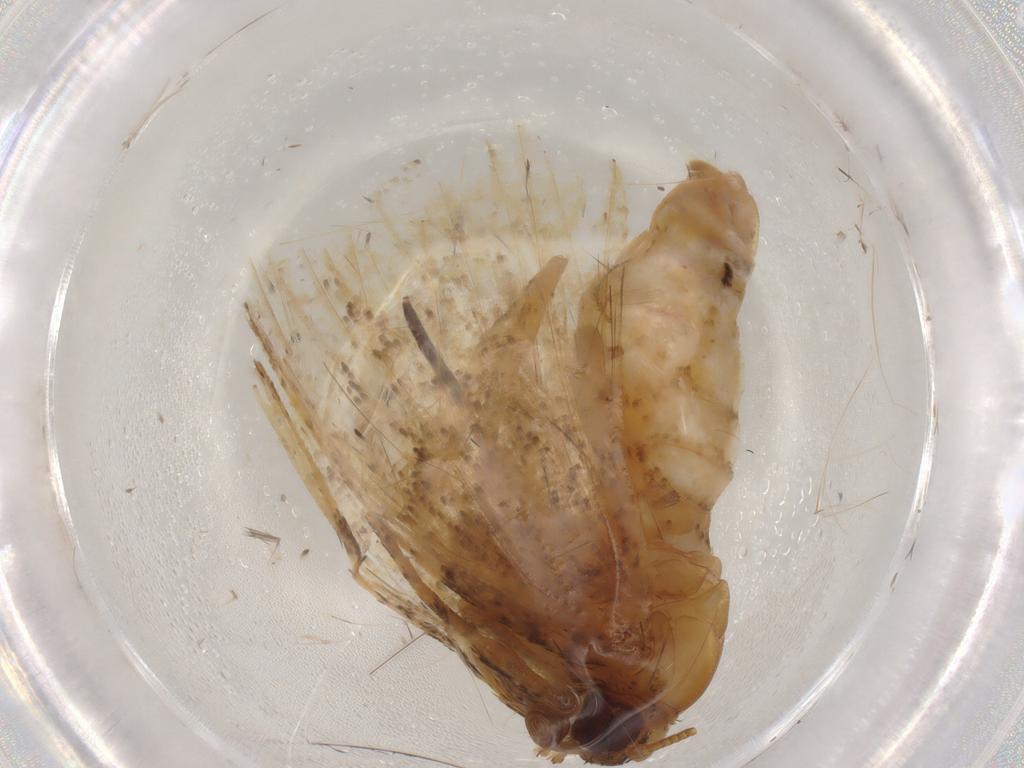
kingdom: Animalia
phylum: Arthropoda
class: Insecta
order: Lepidoptera
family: Geometridae
